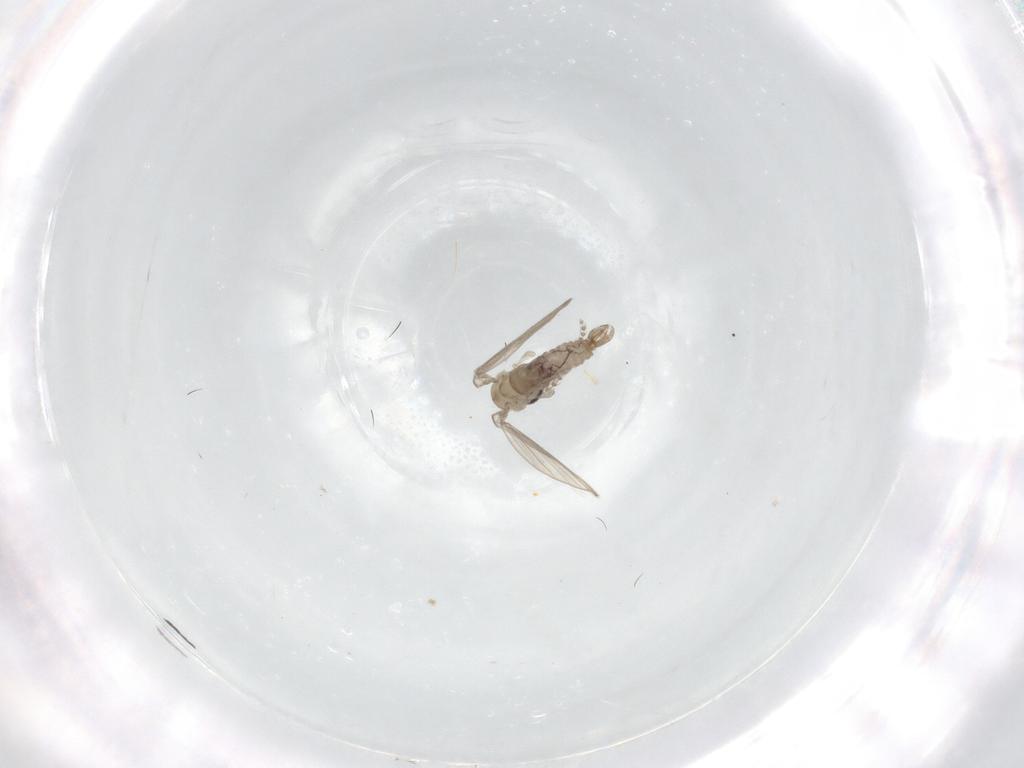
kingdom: Animalia
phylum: Arthropoda
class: Insecta
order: Diptera
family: Psychodidae
